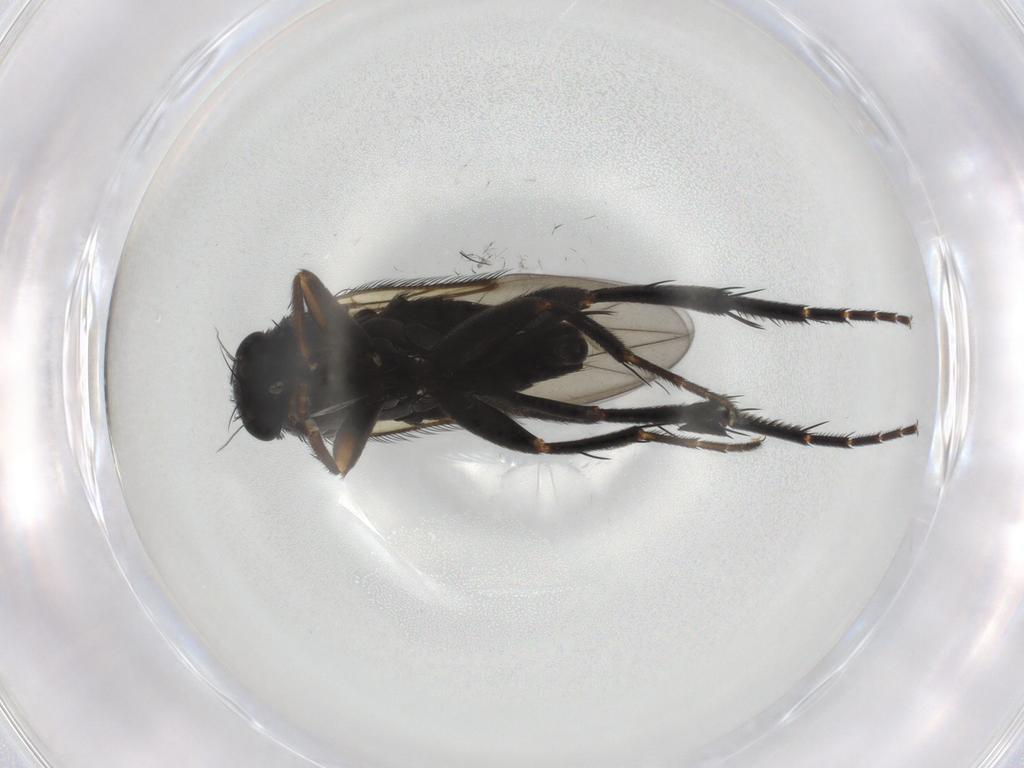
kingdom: Animalia
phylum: Arthropoda
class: Insecta
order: Diptera
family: Phoridae
